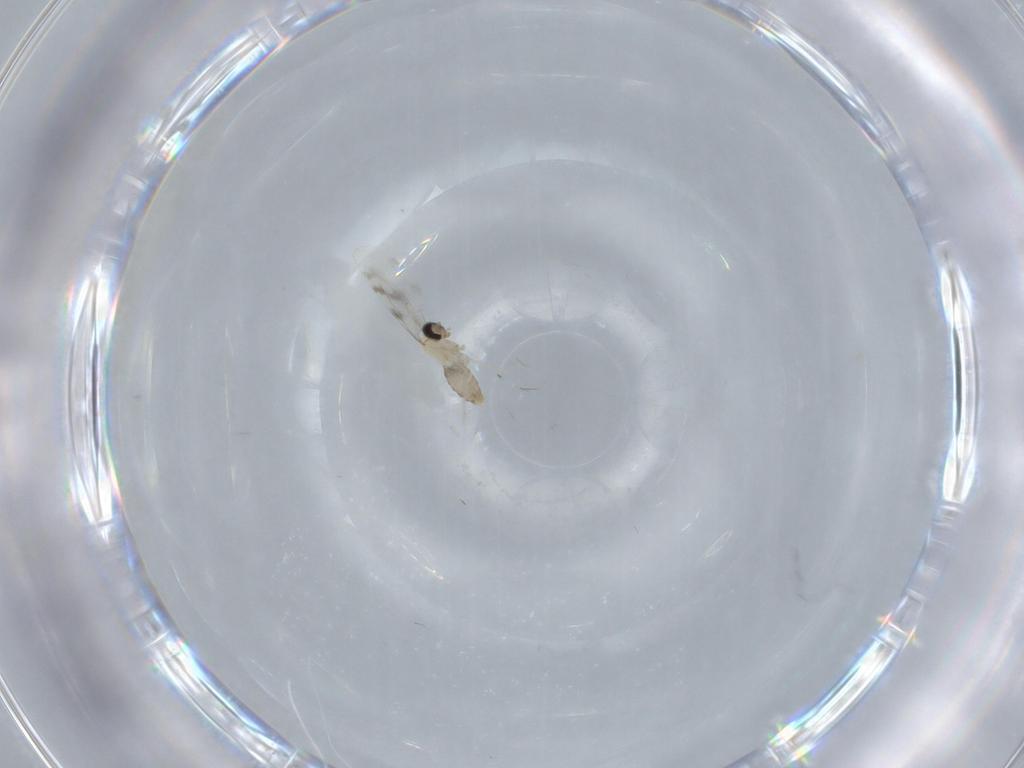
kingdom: Animalia
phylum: Arthropoda
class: Insecta
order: Diptera
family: Cecidomyiidae
